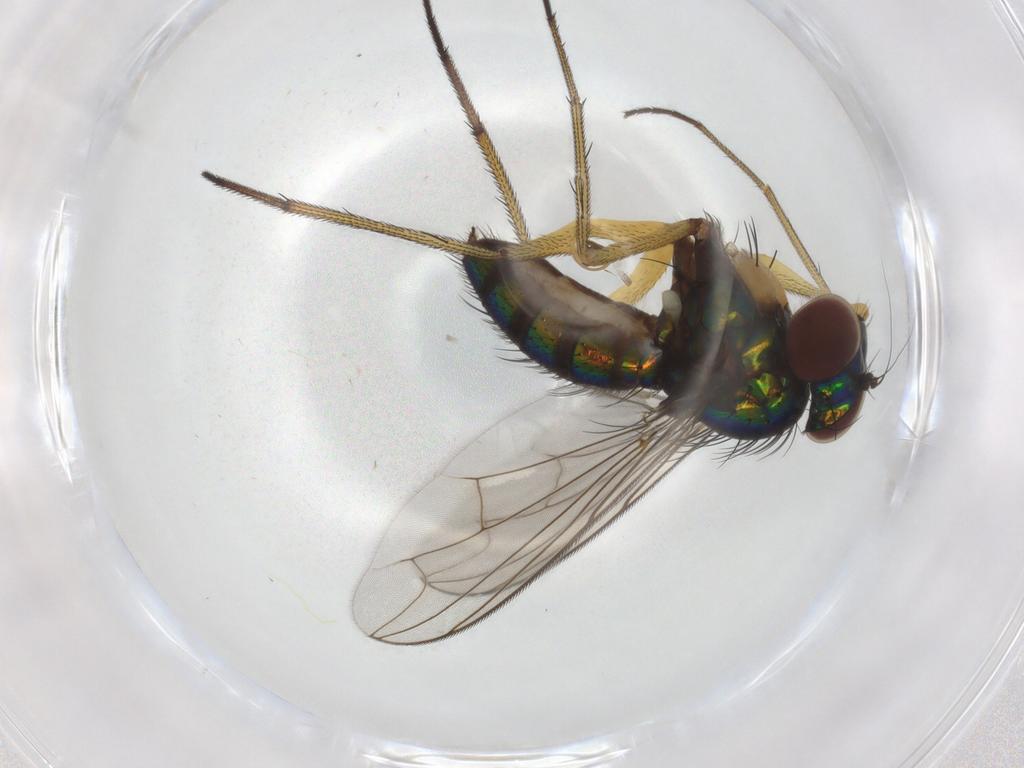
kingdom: Animalia
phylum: Arthropoda
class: Insecta
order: Diptera
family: Dolichopodidae
